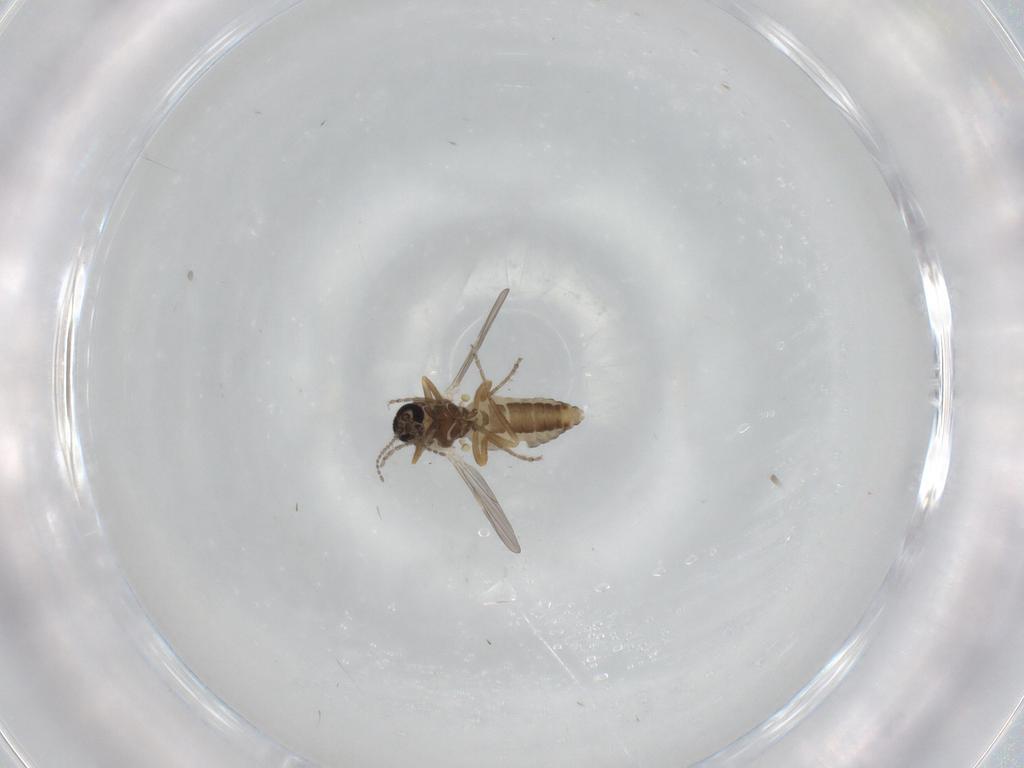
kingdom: Animalia
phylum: Arthropoda
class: Insecta
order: Diptera
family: Ceratopogonidae
